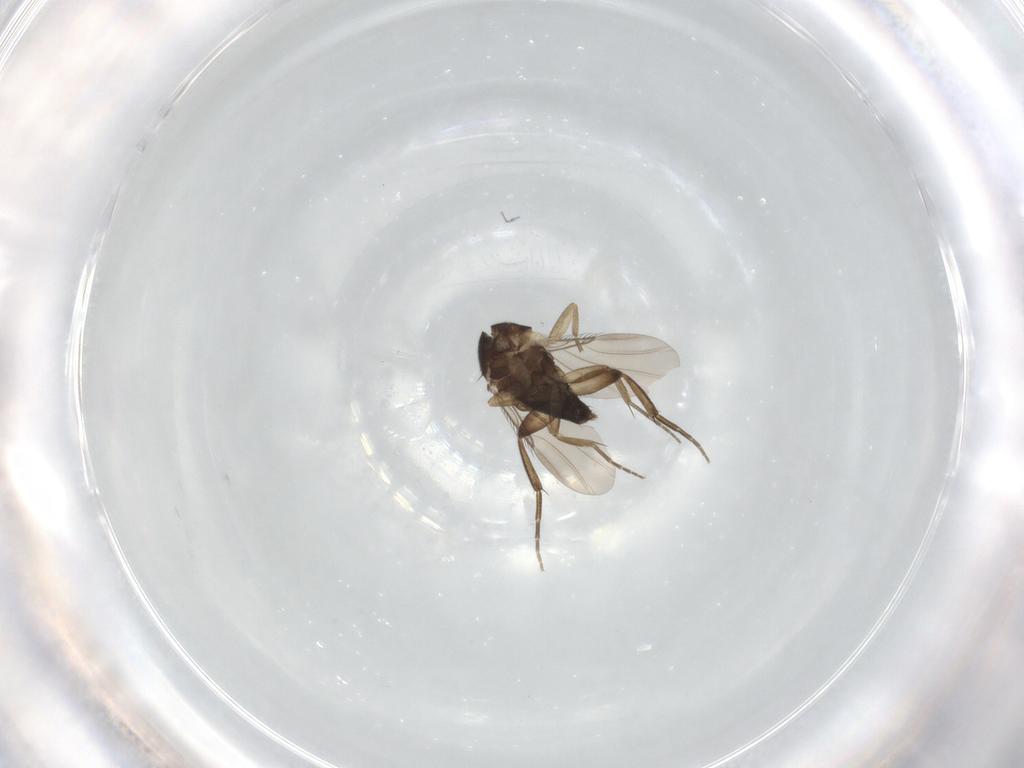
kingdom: Animalia
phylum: Arthropoda
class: Insecta
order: Diptera
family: Phoridae
